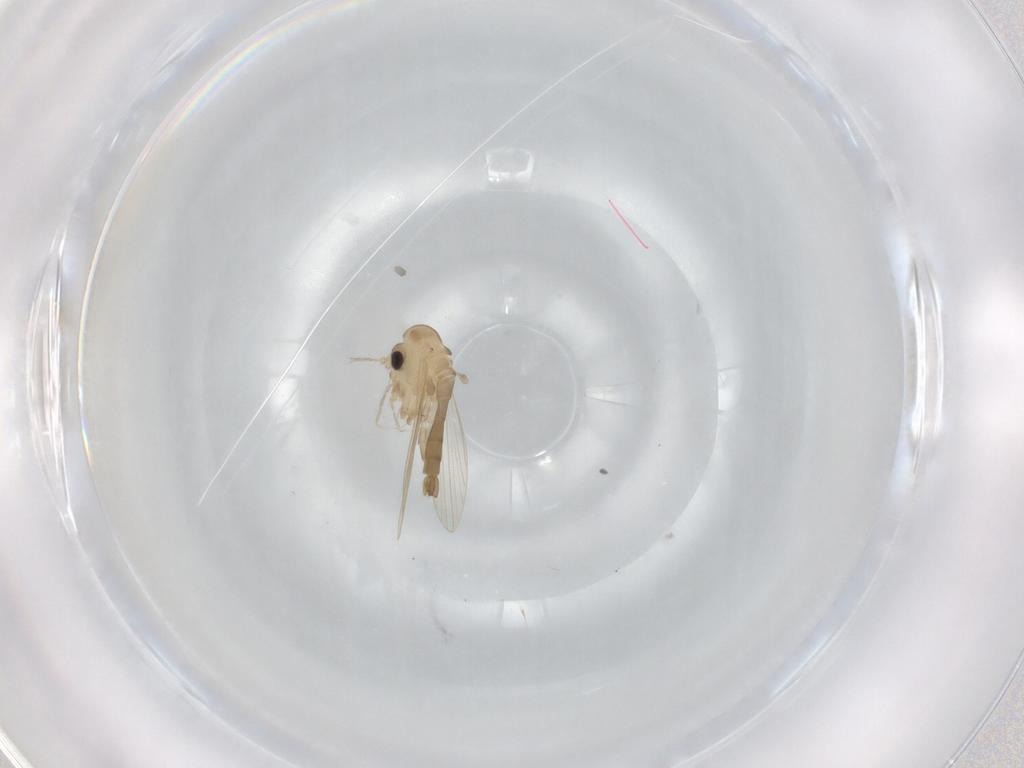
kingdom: Animalia
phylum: Arthropoda
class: Insecta
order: Diptera
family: Psychodidae
